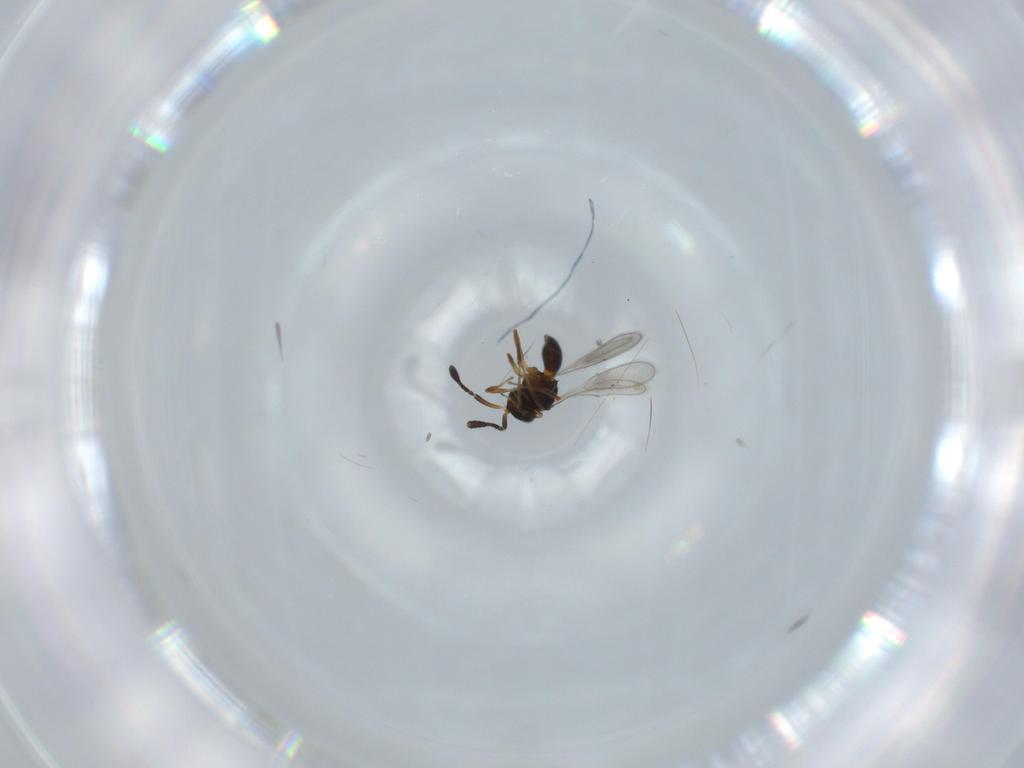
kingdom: Animalia
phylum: Arthropoda
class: Insecta
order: Hymenoptera
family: Scelionidae
